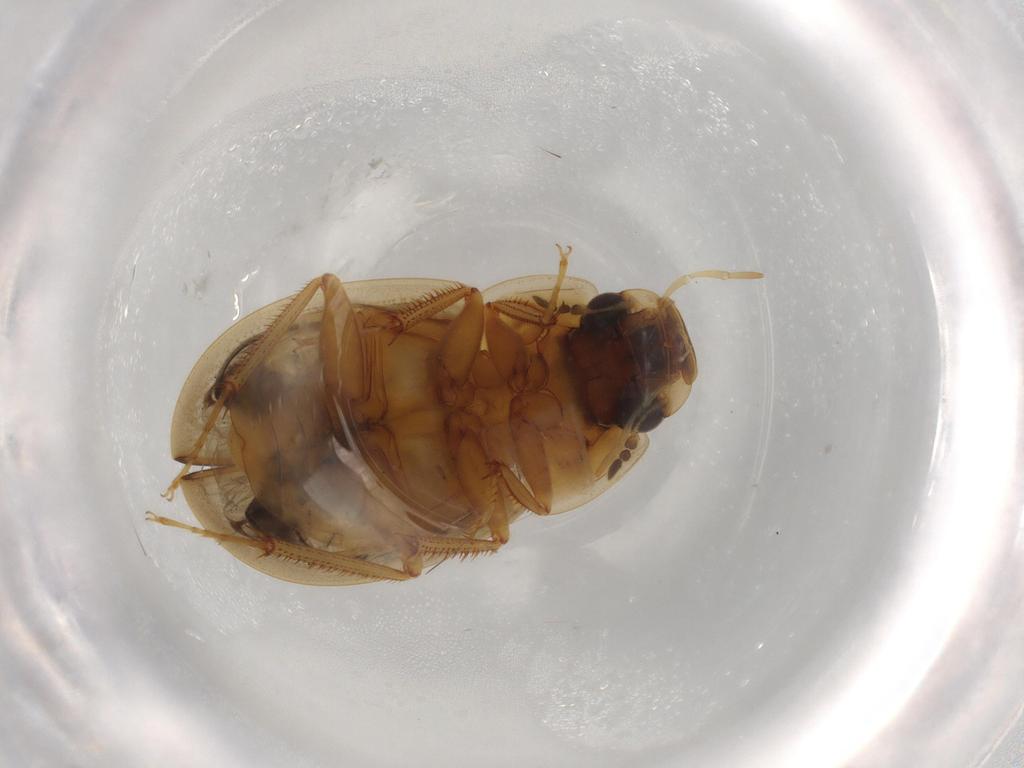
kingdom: Animalia
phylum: Arthropoda
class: Insecta
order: Coleoptera
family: Hydrophilidae
